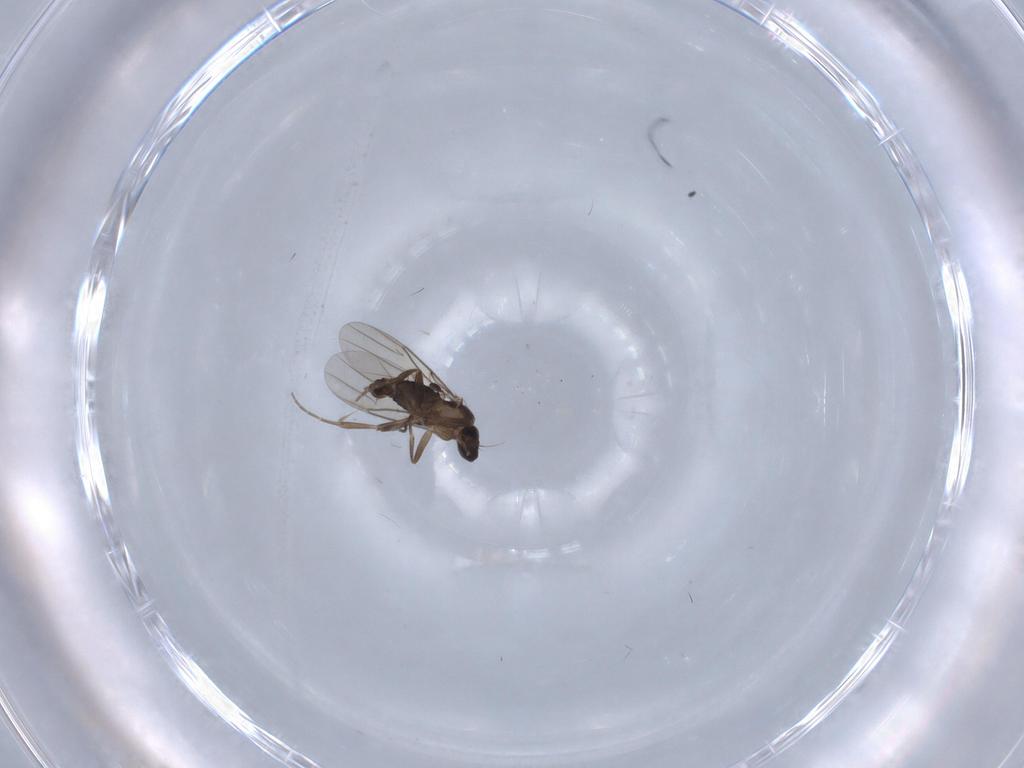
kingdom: Animalia
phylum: Arthropoda
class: Insecta
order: Diptera
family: Phoridae
